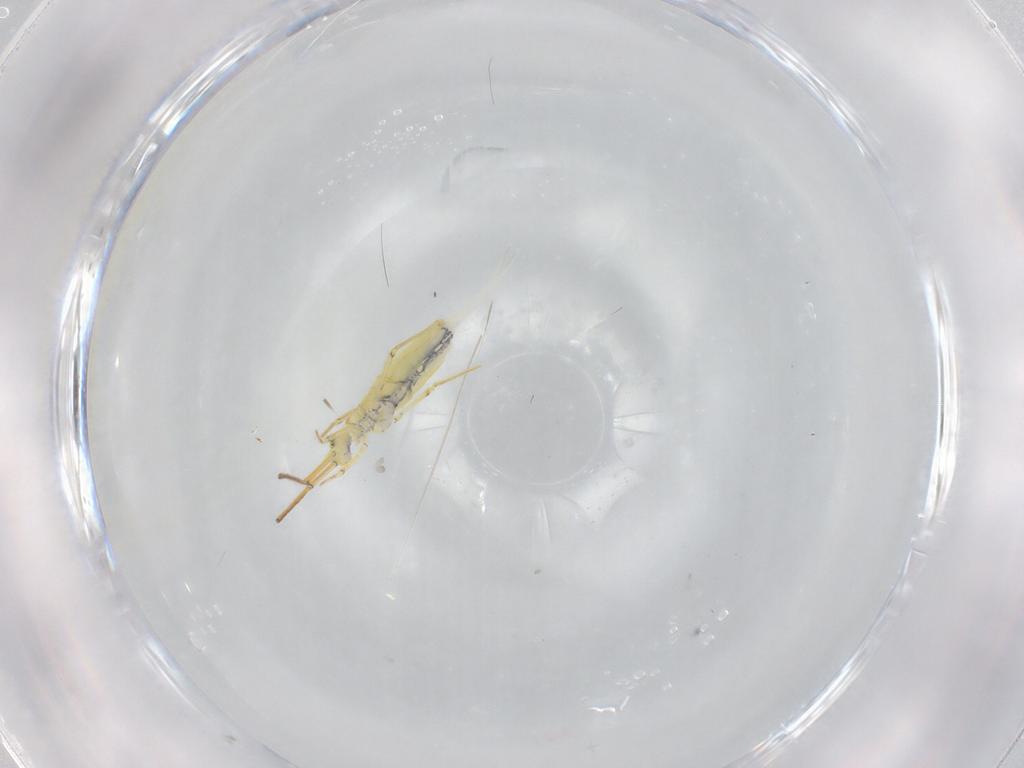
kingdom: Animalia
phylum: Arthropoda
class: Collembola
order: Entomobryomorpha
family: Paronellidae
